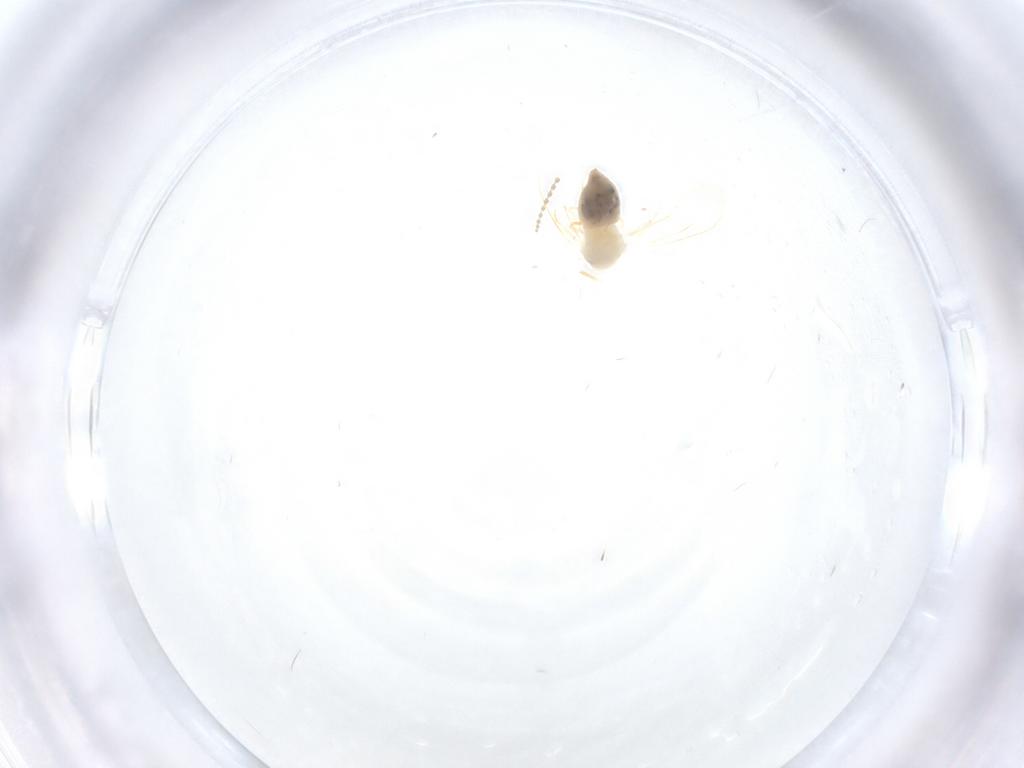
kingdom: Animalia
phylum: Arthropoda
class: Insecta
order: Hemiptera
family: Aleyrodidae
